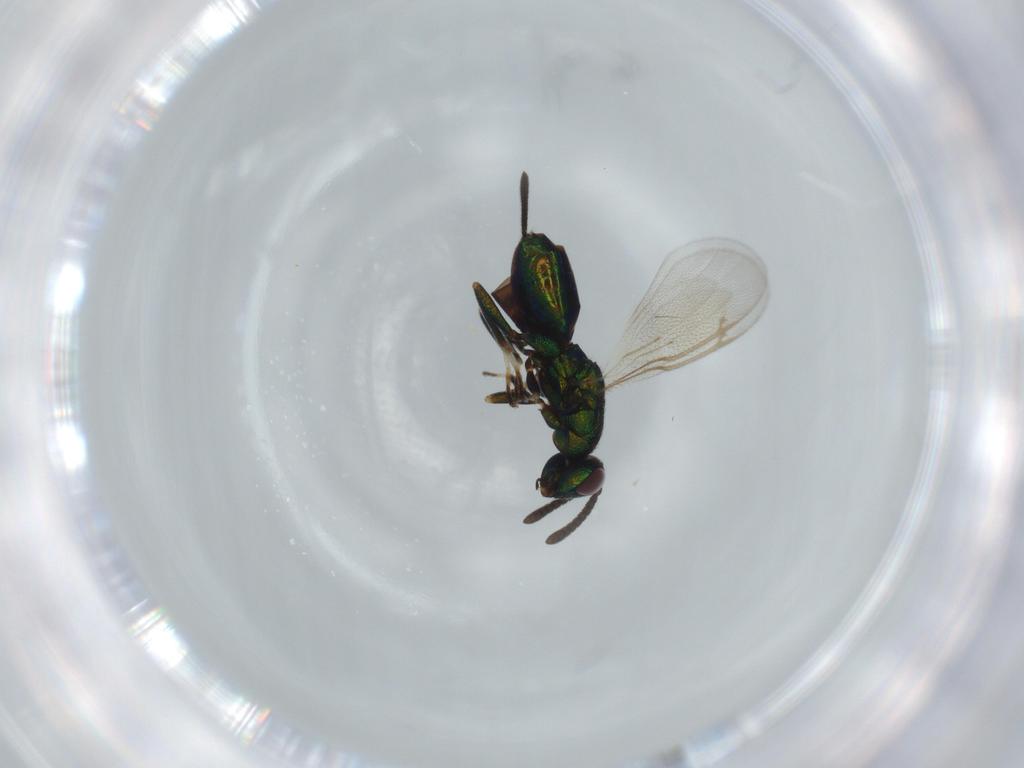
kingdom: Animalia
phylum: Arthropoda
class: Insecta
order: Hymenoptera
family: Torymidae
